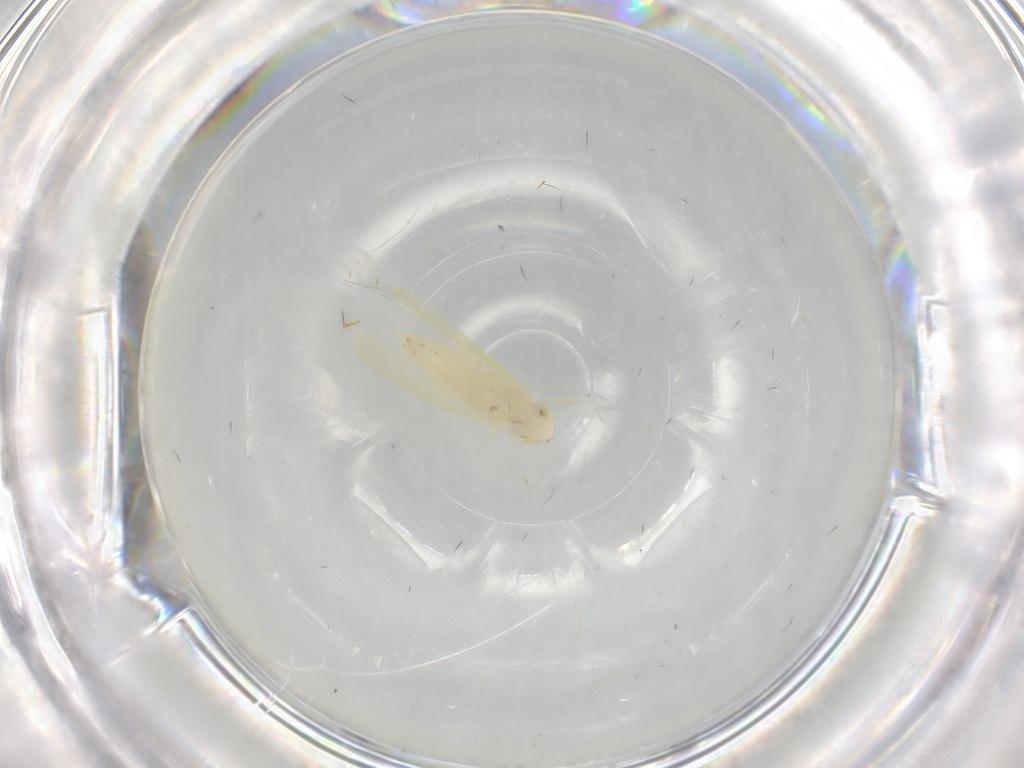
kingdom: Animalia
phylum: Arthropoda
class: Insecta
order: Hemiptera
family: Cicadellidae
